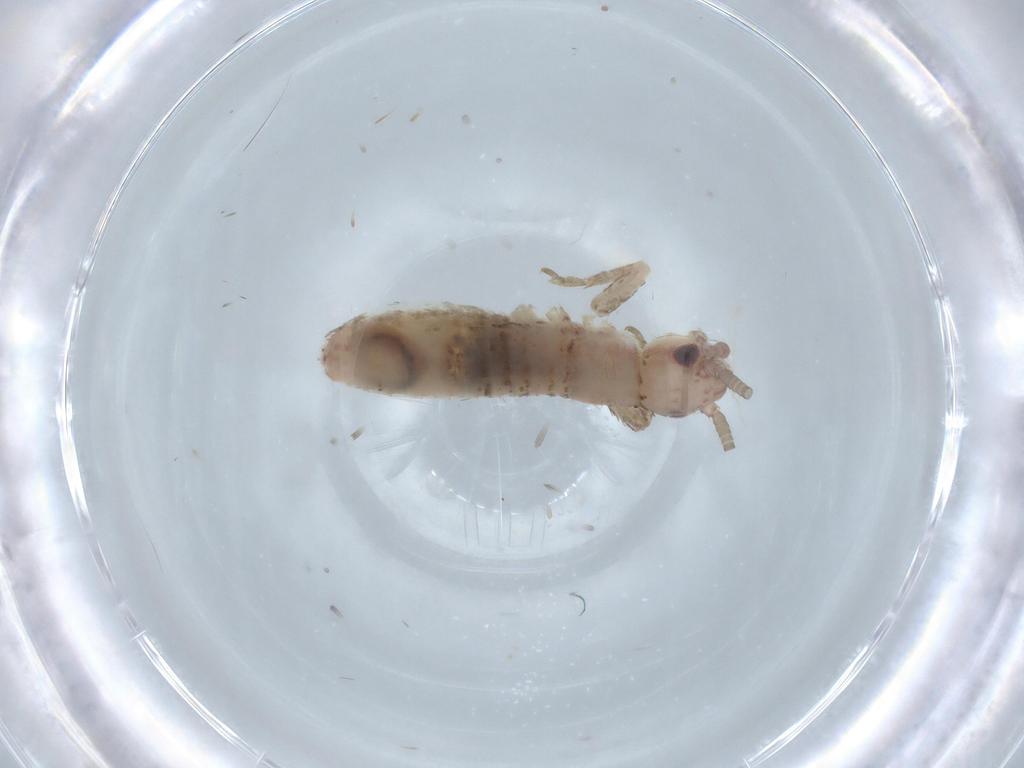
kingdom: Animalia
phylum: Arthropoda
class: Insecta
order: Orthoptera
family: Mogoplistidae
